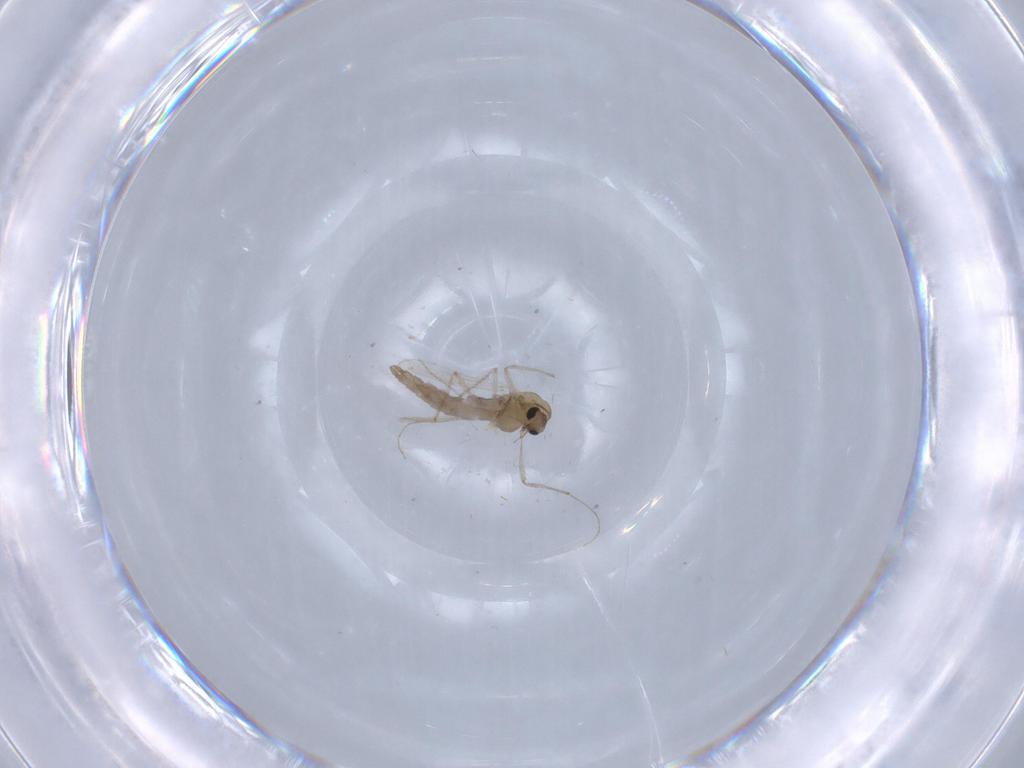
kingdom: Animalia
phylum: Arthropoda
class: Insecta
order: Diptera
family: Chironomidae
